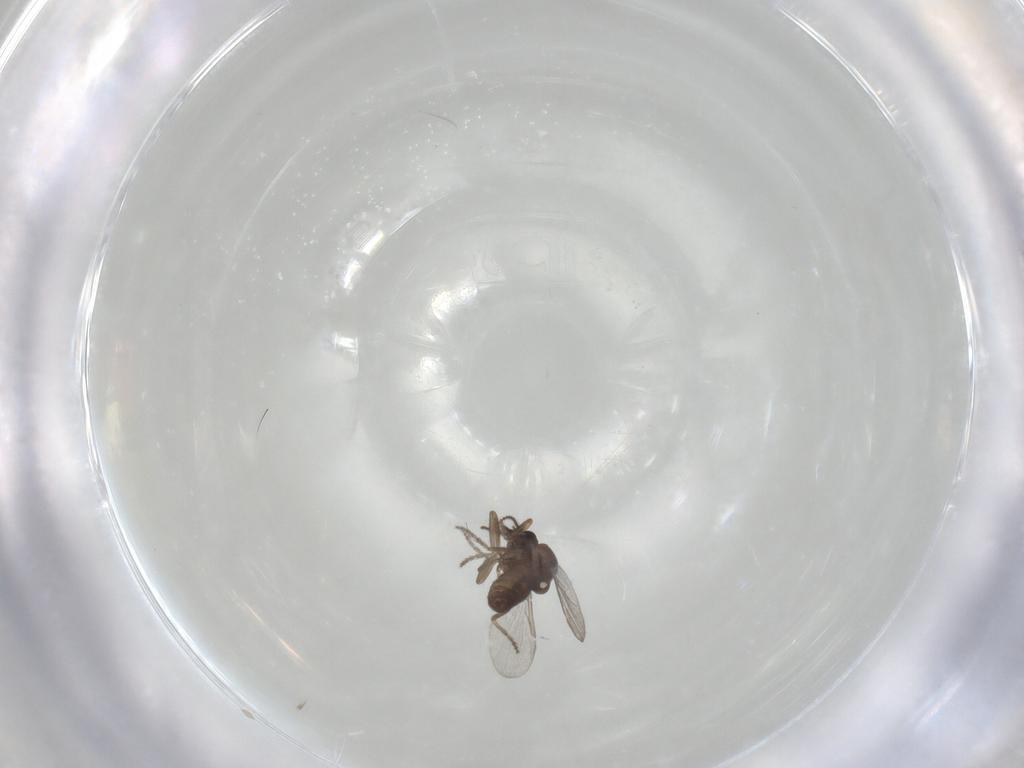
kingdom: Animalia
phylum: Arthropoda
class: Insecta
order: Diptera
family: Ceratopogonidae
